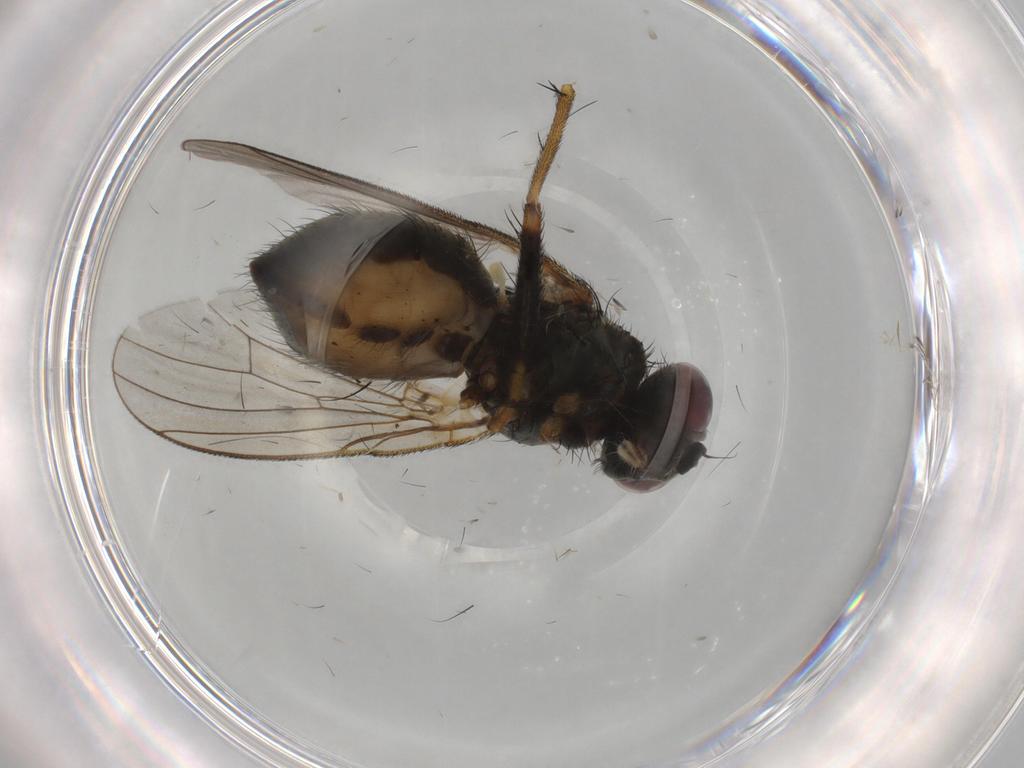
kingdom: Animalia
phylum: Arthropoda
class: Insecta
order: Diptera
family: Muscidae
